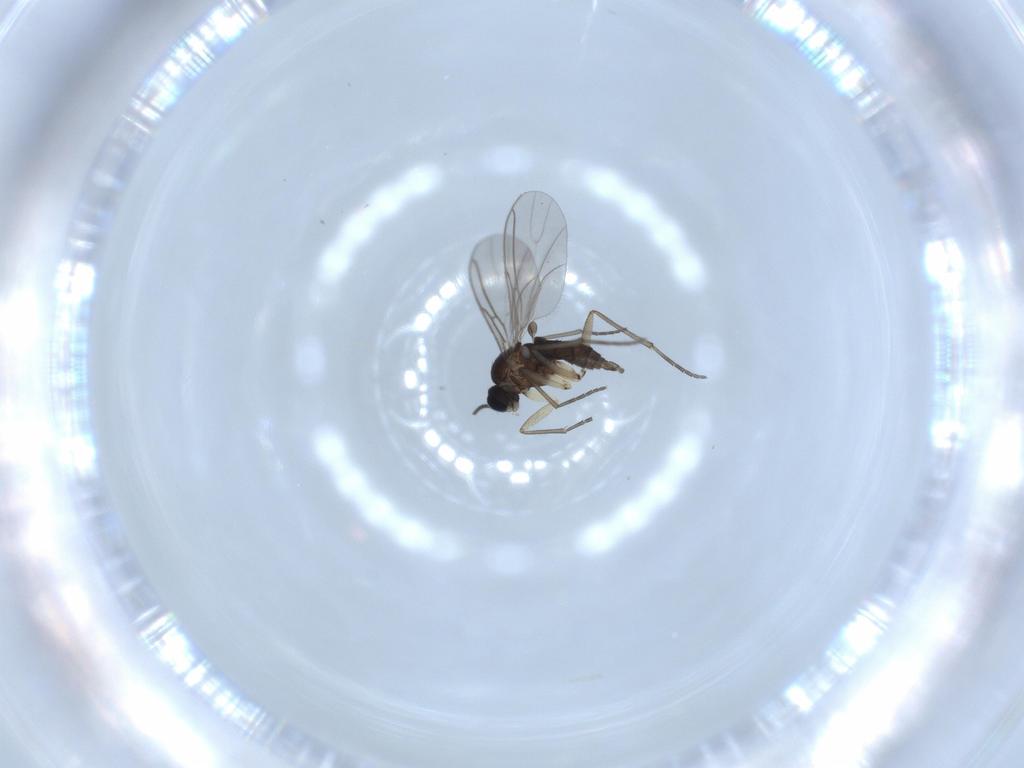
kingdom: Animalia
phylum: Arthropoda
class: Insecta
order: Diptera
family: Sciaridae
